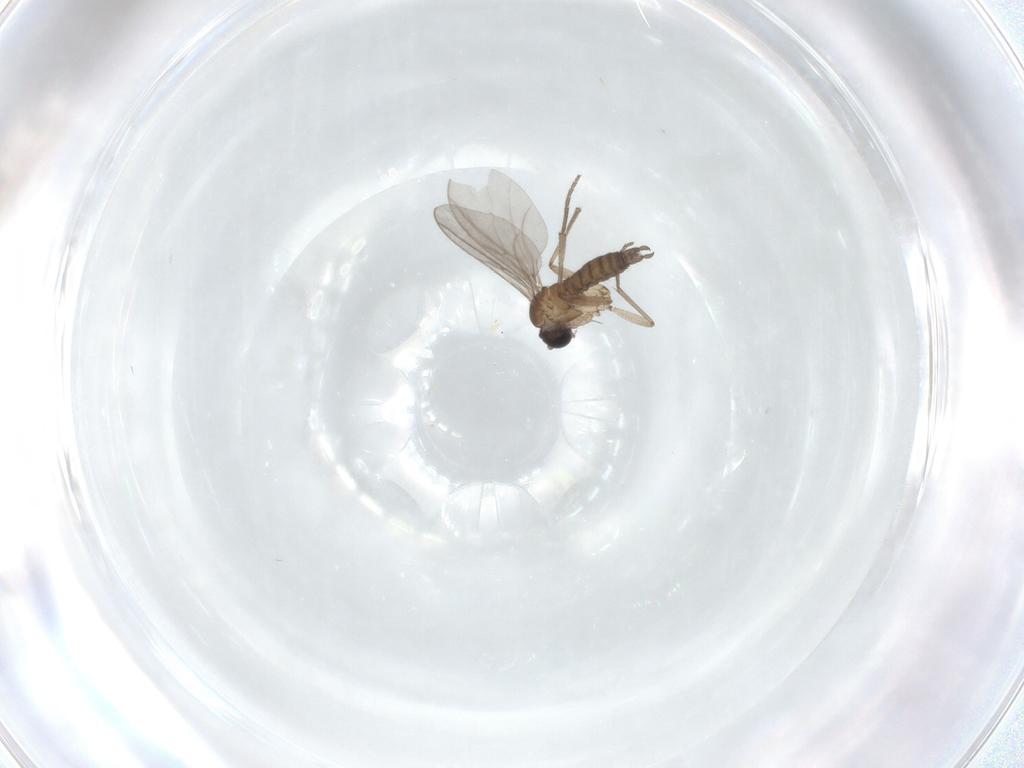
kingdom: Animalia
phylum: Arthropoda
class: Insecta
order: Diptera
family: Sciaridae
